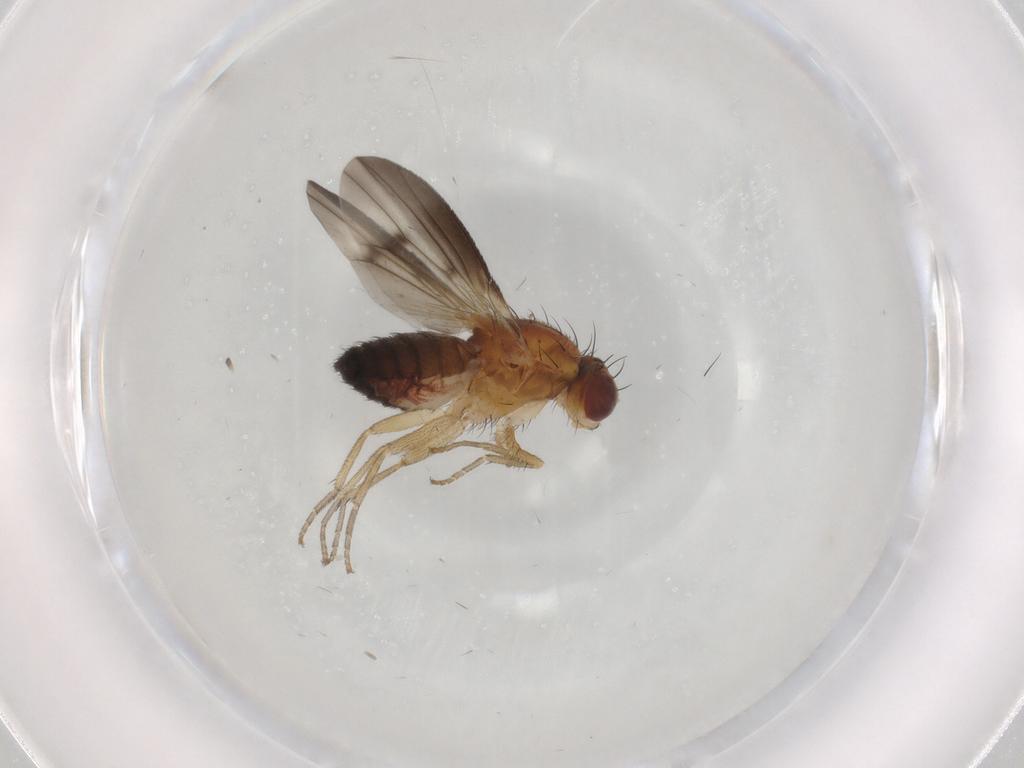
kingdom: Animalia
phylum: Arthropoda
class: Insecta
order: Diptera
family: Heleomyzidae
